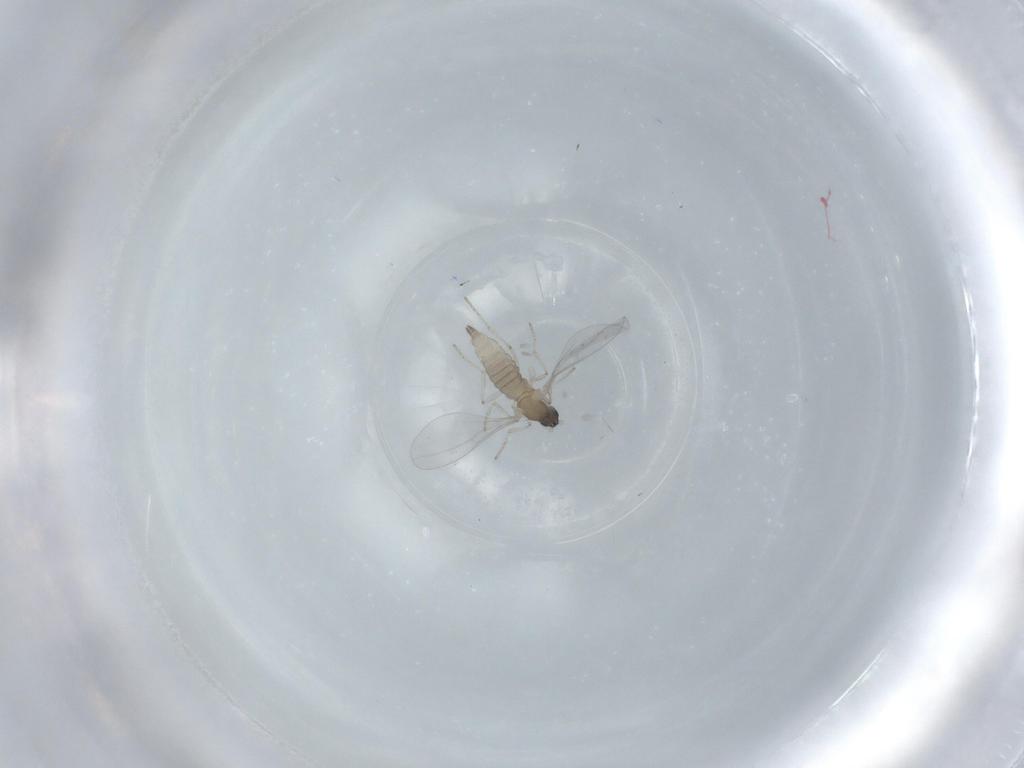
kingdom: Animalia
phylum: Arthropoda
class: Insecta
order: Diptera
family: Cecidomyiidae
